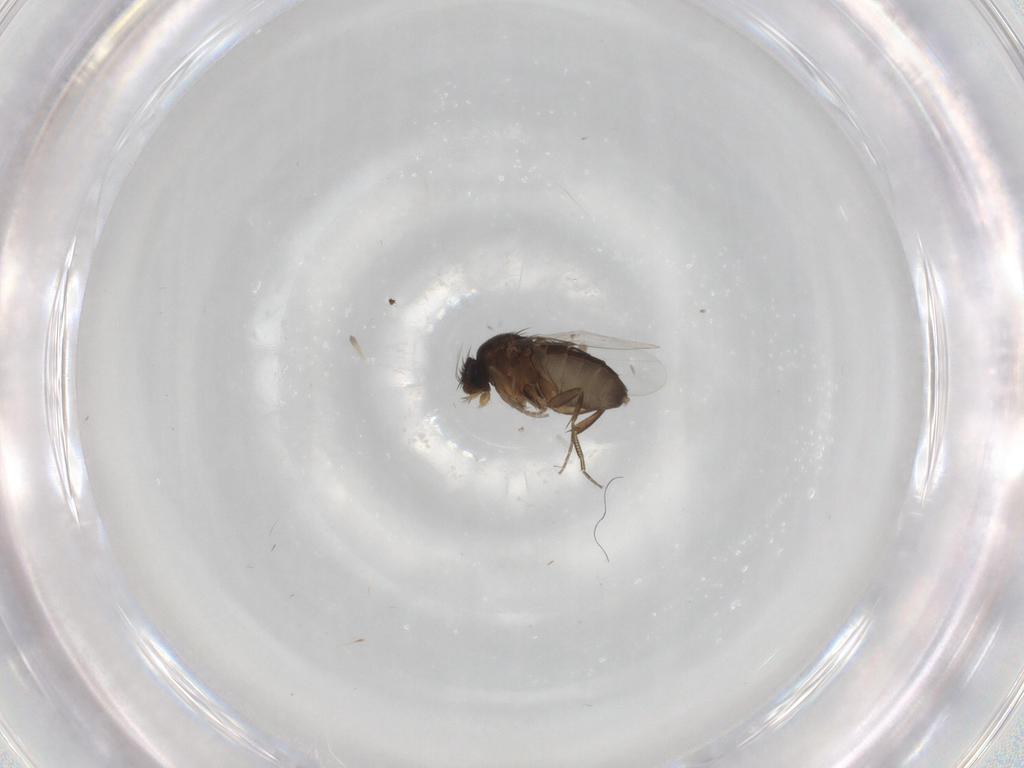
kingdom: Animalia
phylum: Arthropoda
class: Insecta
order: Diptera
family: Phoridae
